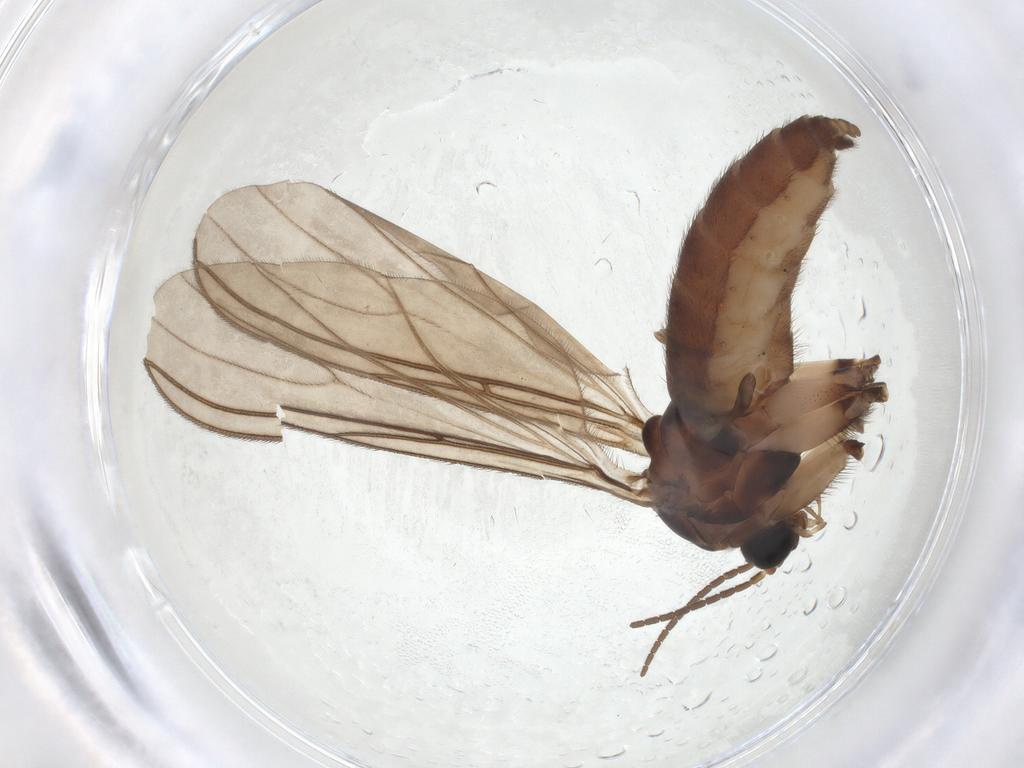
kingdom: Animalia
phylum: Arthropoda
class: Insecta
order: Diptera
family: Sciaridae
